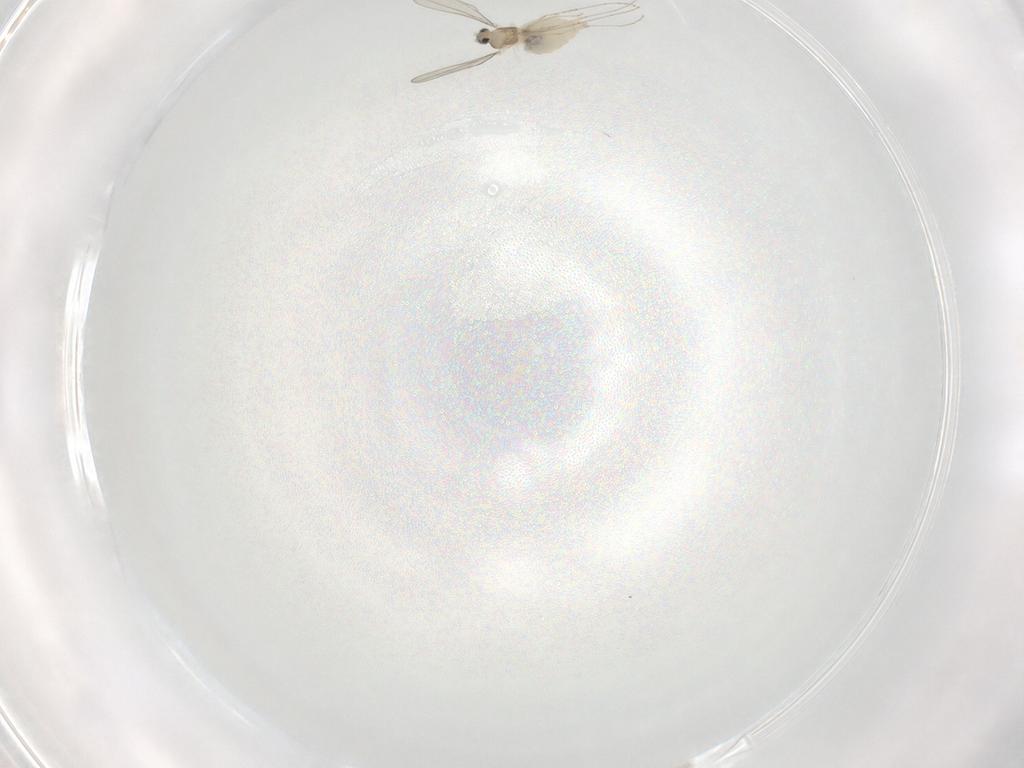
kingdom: Animalia
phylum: Arthropoda
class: Insecta
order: Diptera
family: Cecidomyiidae
